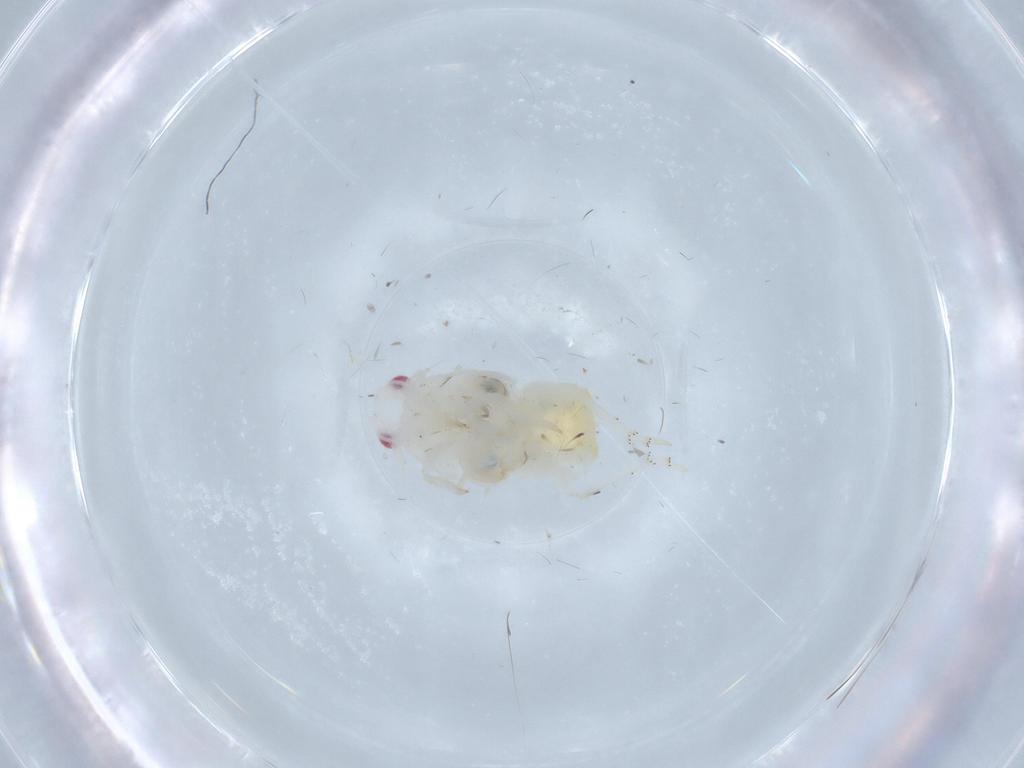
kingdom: Animalia
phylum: Arthropoda
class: Insecta
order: Hemiptera
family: Flatidae
